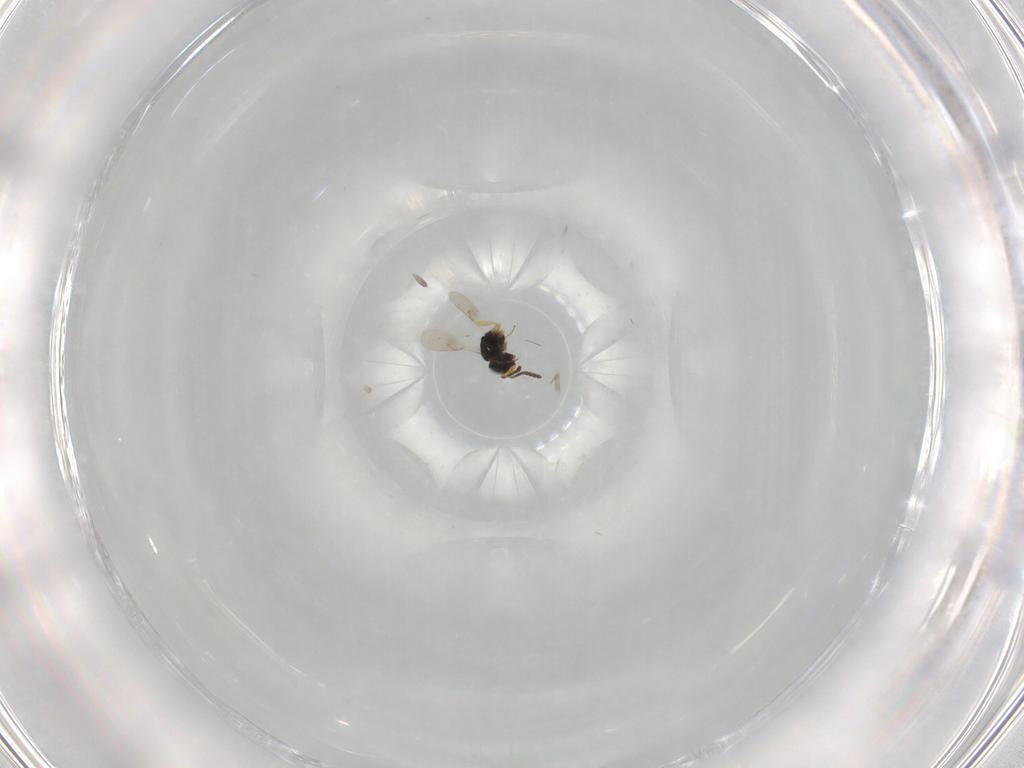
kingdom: Animalia
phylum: Arthropoda
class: Insecta
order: Hymenoptera
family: Scelionidae
